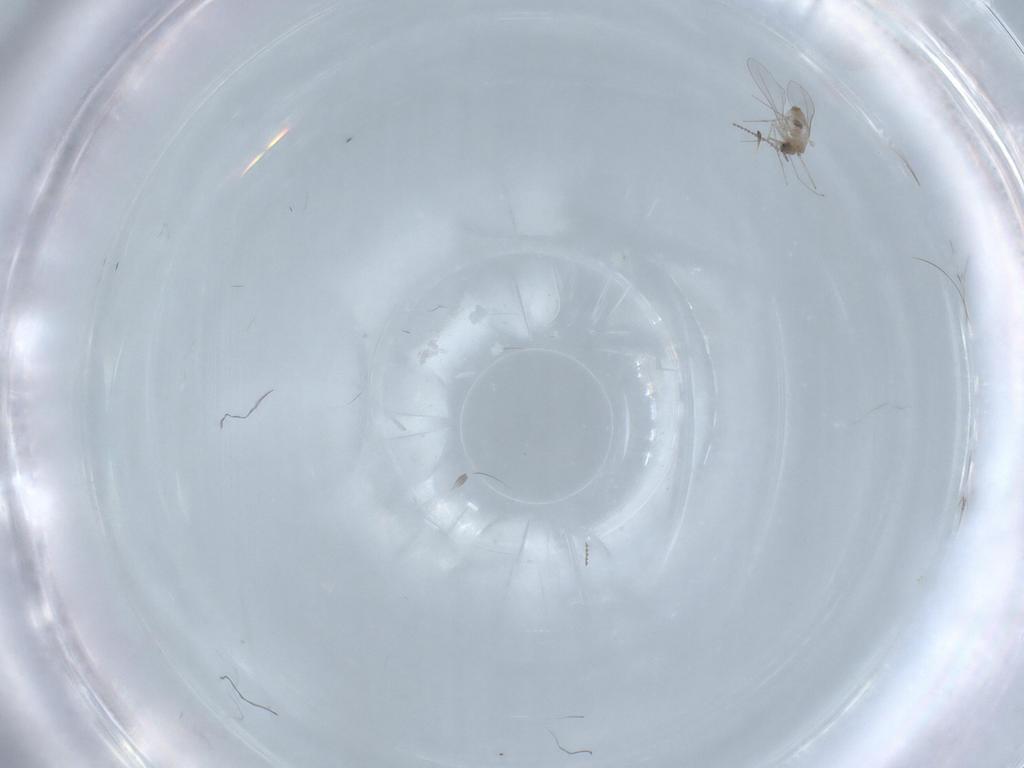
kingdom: Animalia
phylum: Arthropoda
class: Insecta
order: Diptera
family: Cecidomyiidae
